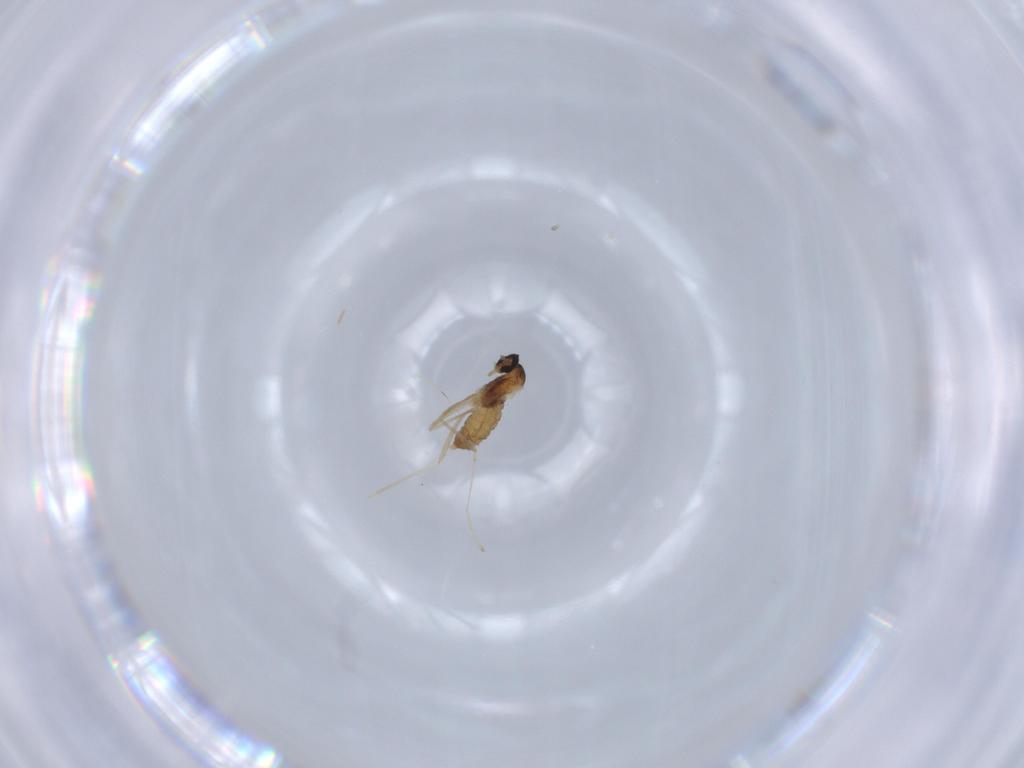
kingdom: Animalia
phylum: Arthropoda
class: Insecta
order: Diptera
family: Cecidomyiidae
